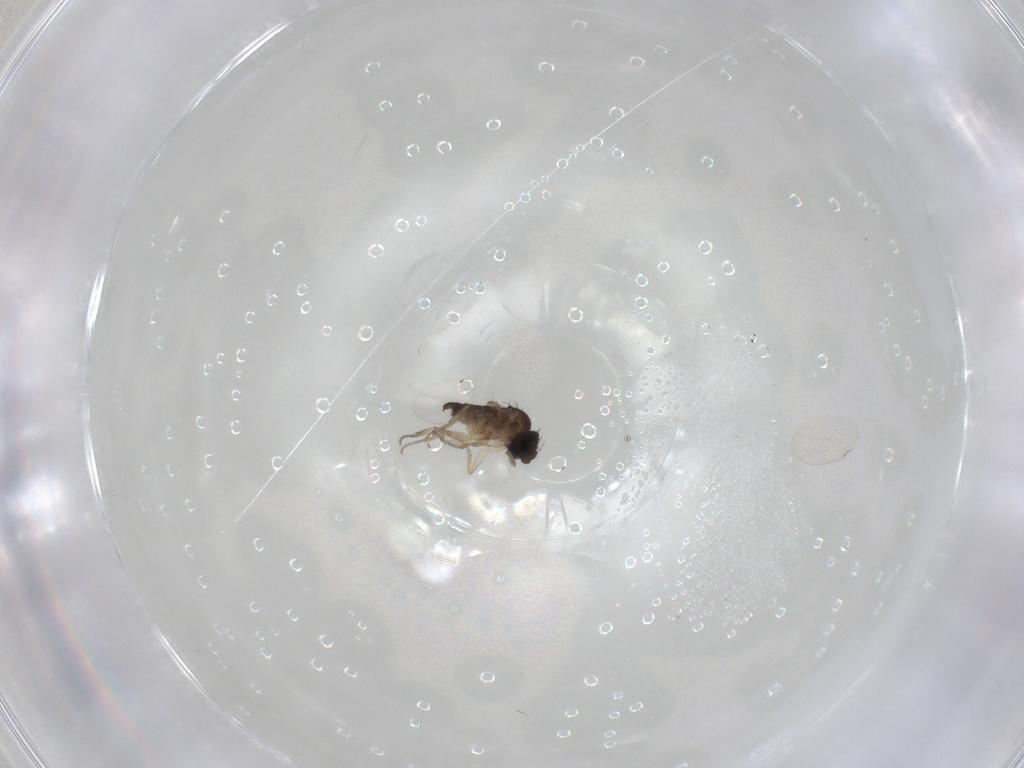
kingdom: Animalia
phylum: Arthropoda
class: Insecta
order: Diptera
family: Phoridae
